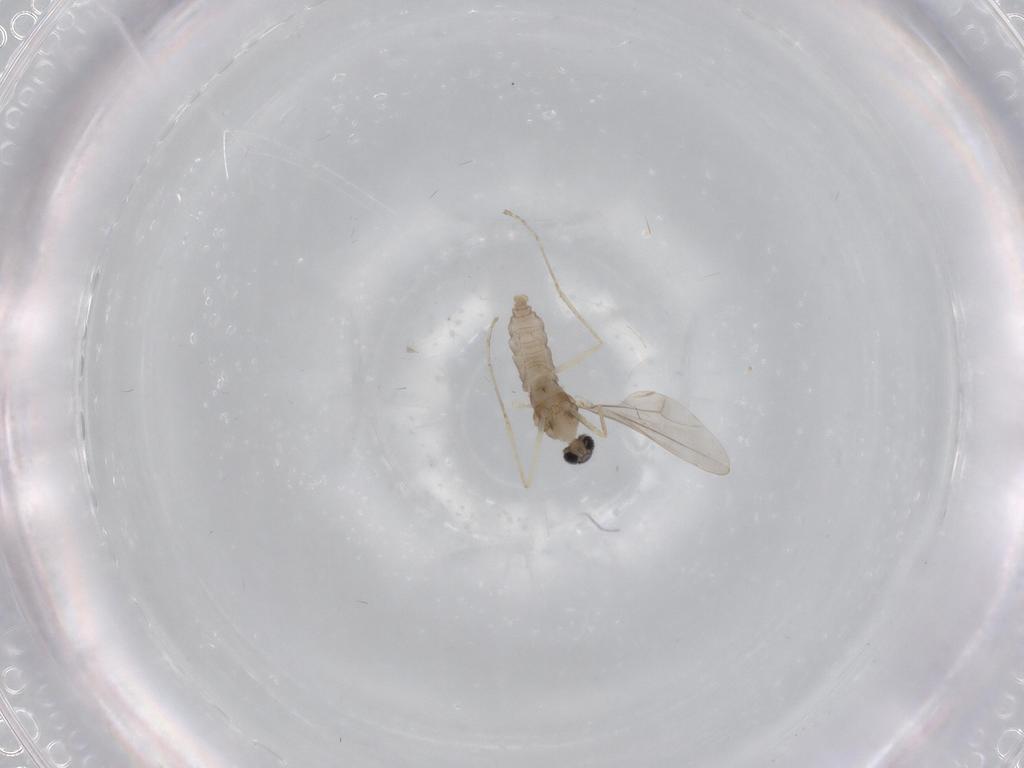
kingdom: Animalia
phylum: Arthropoda
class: Insecta
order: Diptera
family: Cecidomyiidae
